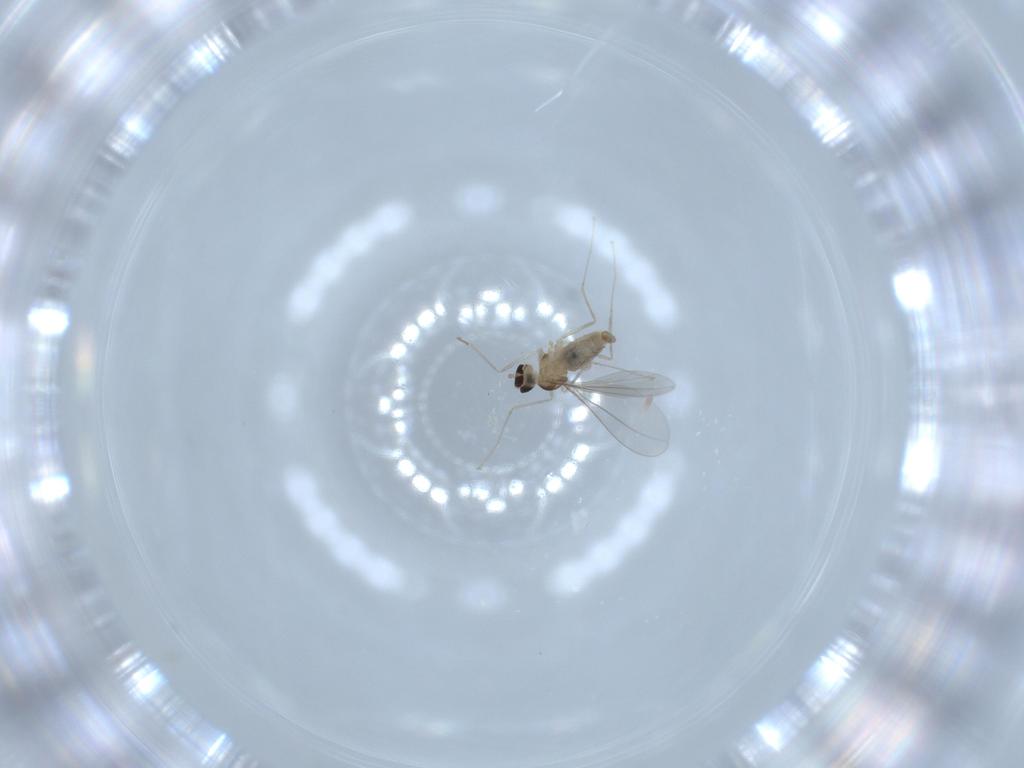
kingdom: Animalia
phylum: Arthropoda
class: Insecta
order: Diptera
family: Cecidomyiidae
